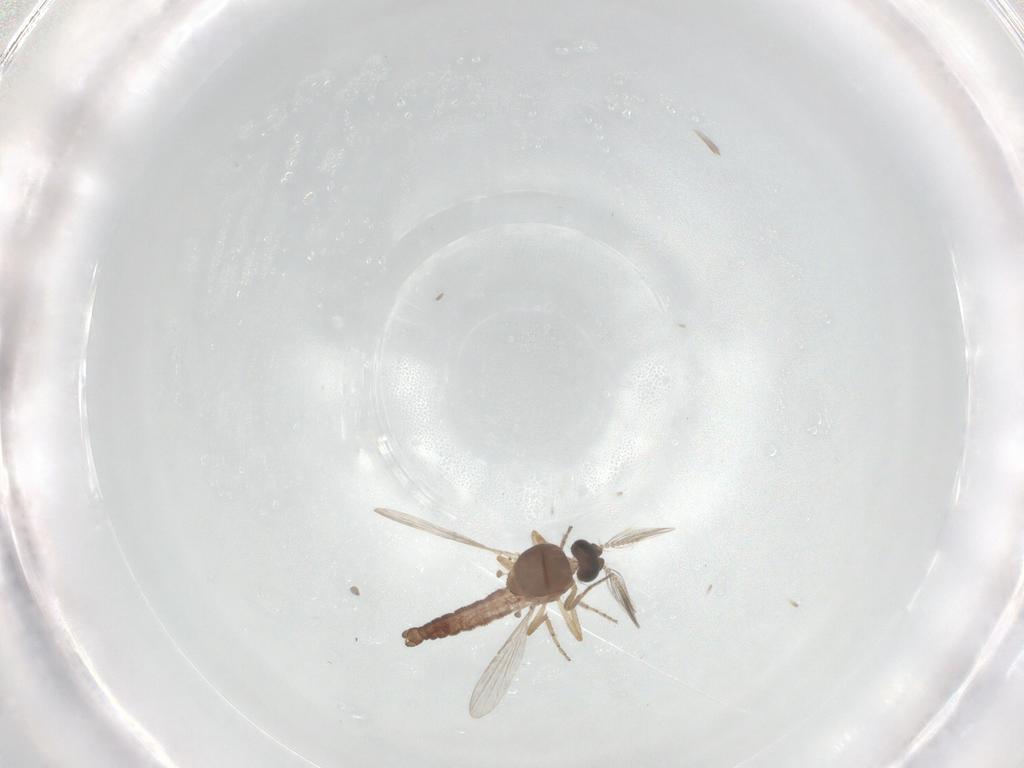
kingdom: Animalia
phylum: Arthropoda
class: Insecta
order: Diptera
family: Ceratopogonidae
